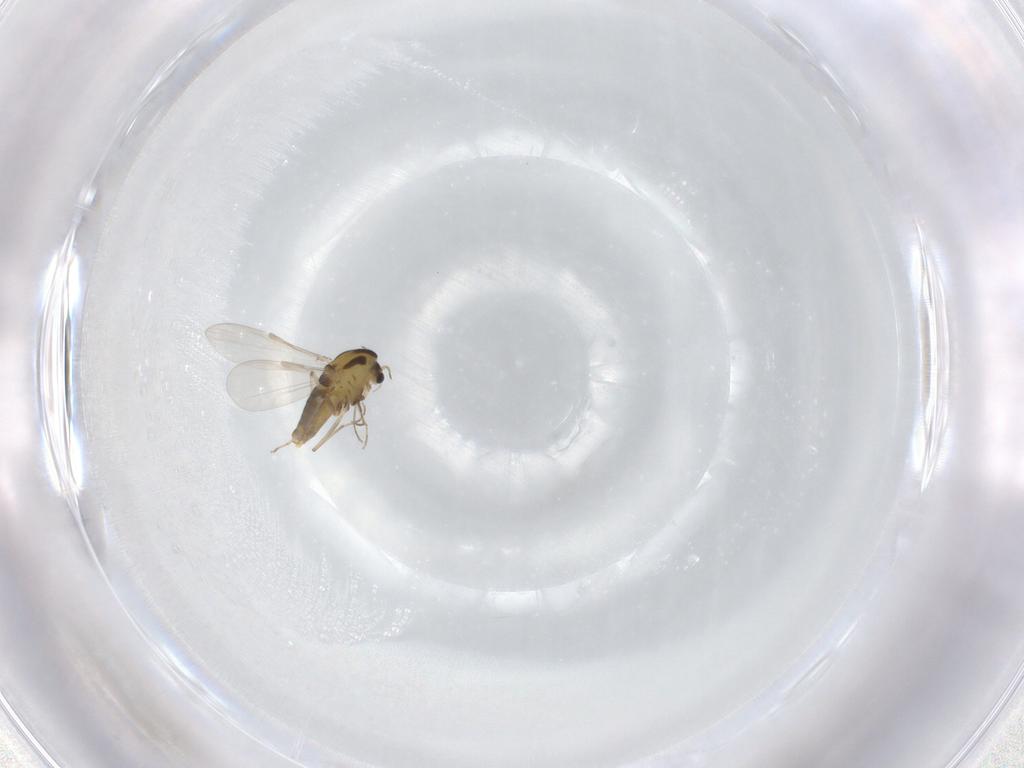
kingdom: Animalia
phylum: Arthropoda
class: Insecta
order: Diptera
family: Chironomidae
